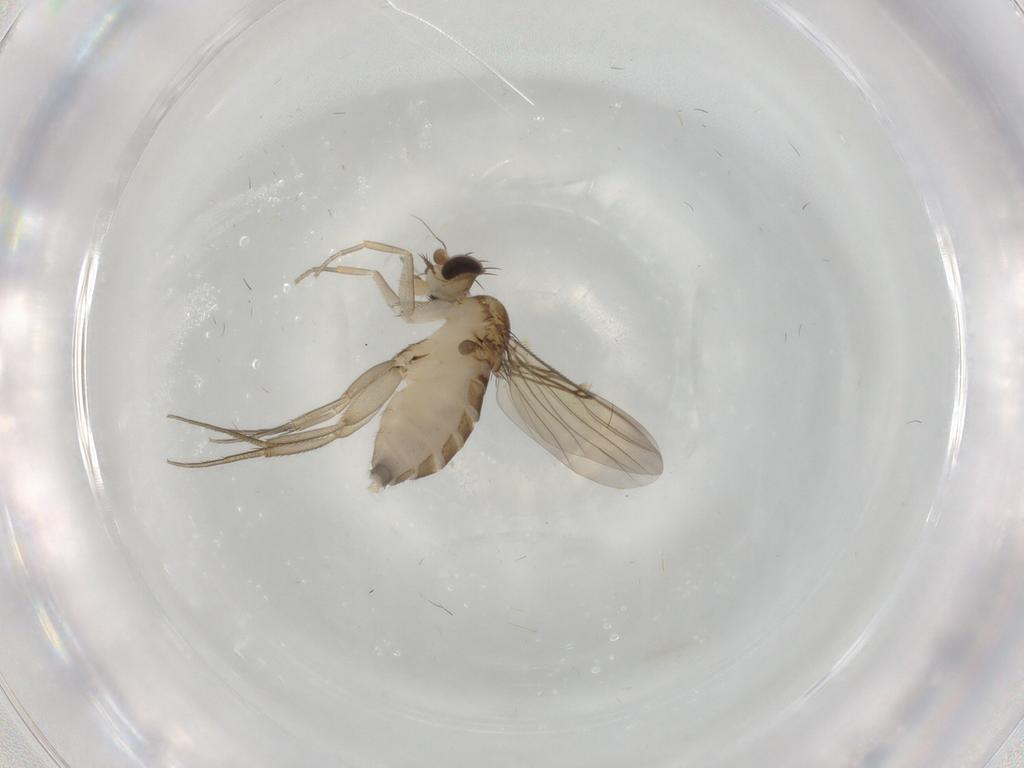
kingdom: Animalia
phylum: Arthropoda
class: Insecta
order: Diptera
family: Phoridae
